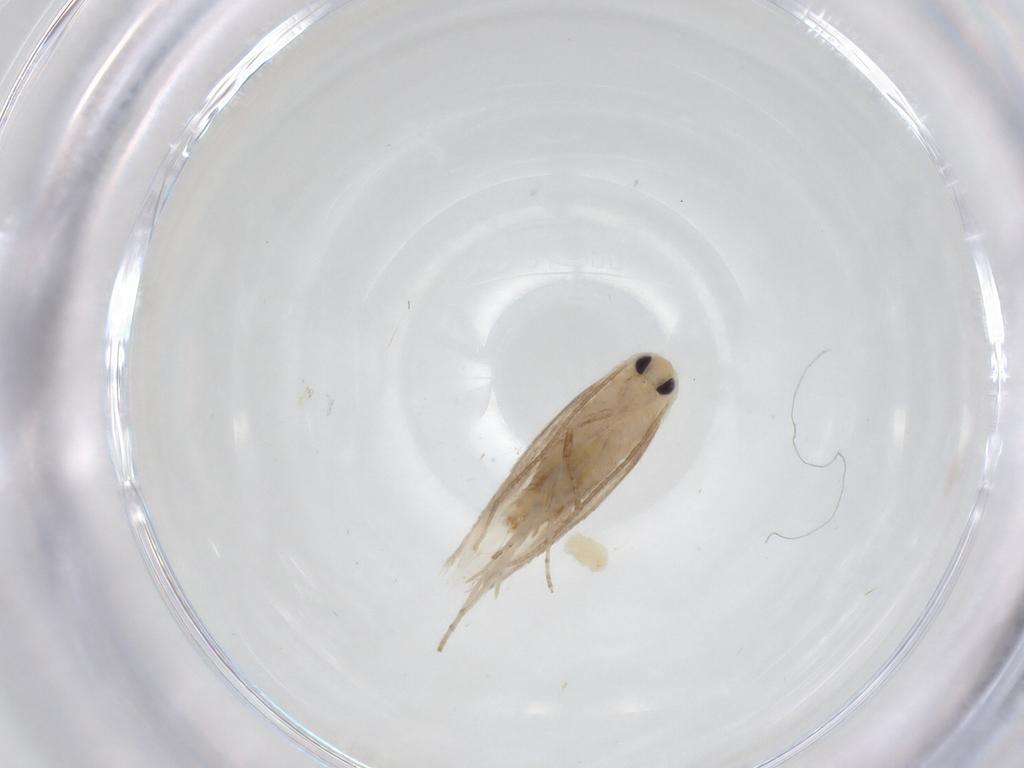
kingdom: Animalia
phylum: Arthropoda
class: Insecta
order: Lepidoptera
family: Lyonetiidae
